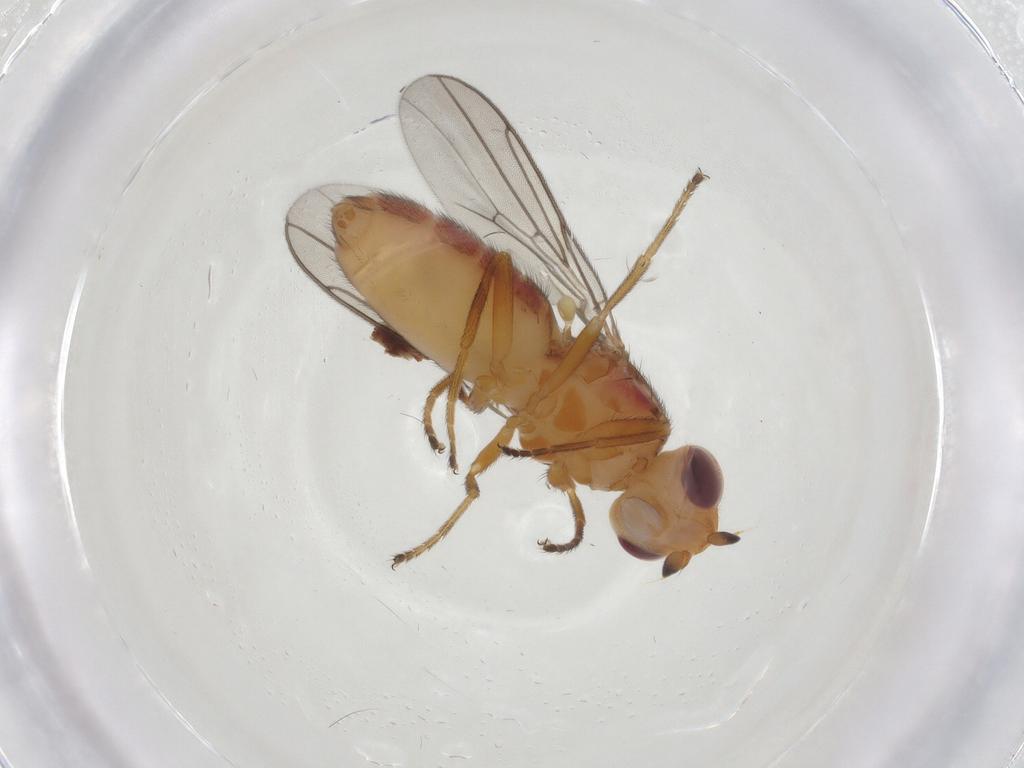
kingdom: Animalia
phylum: Arthropoda
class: Insecta
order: Diptera
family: Chloropidae
